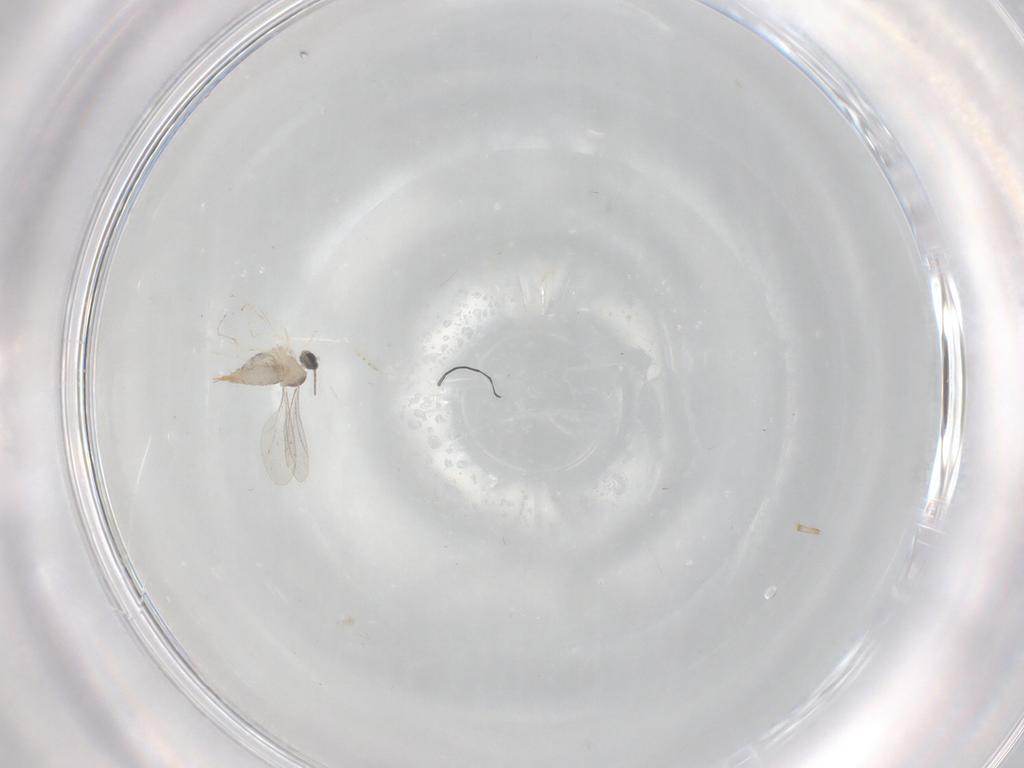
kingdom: Animalia
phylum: Arthropoda
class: Insecta
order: Diptera
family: Cecidomyiidae
